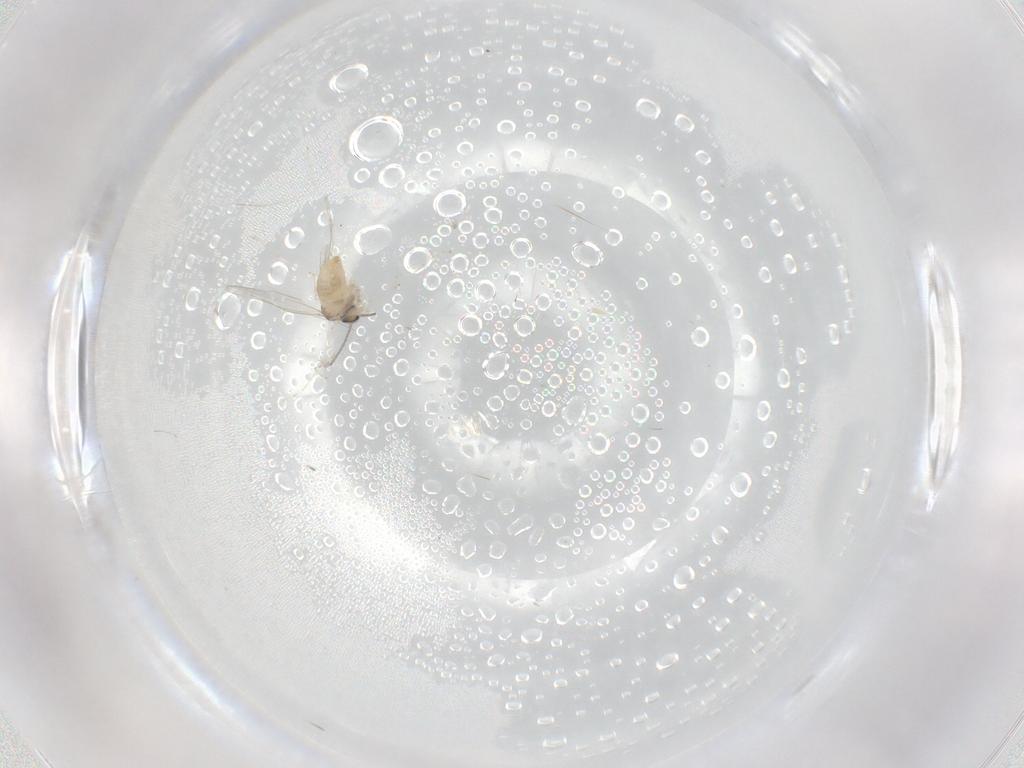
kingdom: Animalia
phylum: Arthropoda
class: Insecta
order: Diptera
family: Cecidomyiidae
